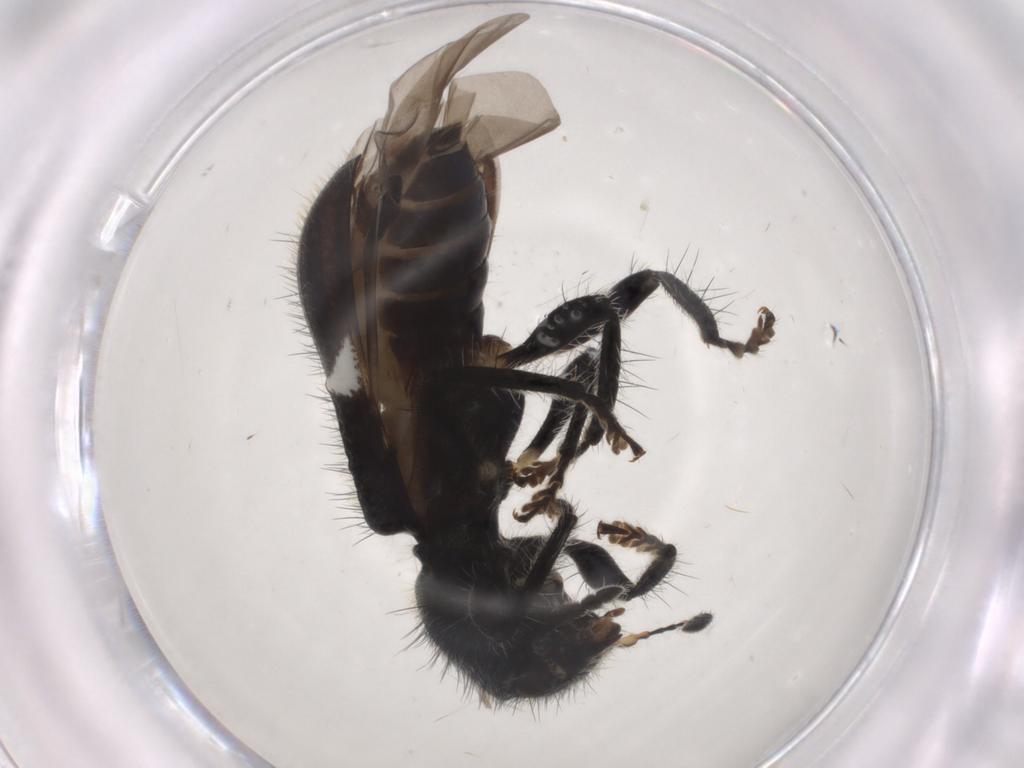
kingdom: Animalia
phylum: Arthropoda
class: Insecta
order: Coleoptera
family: Cleridae
